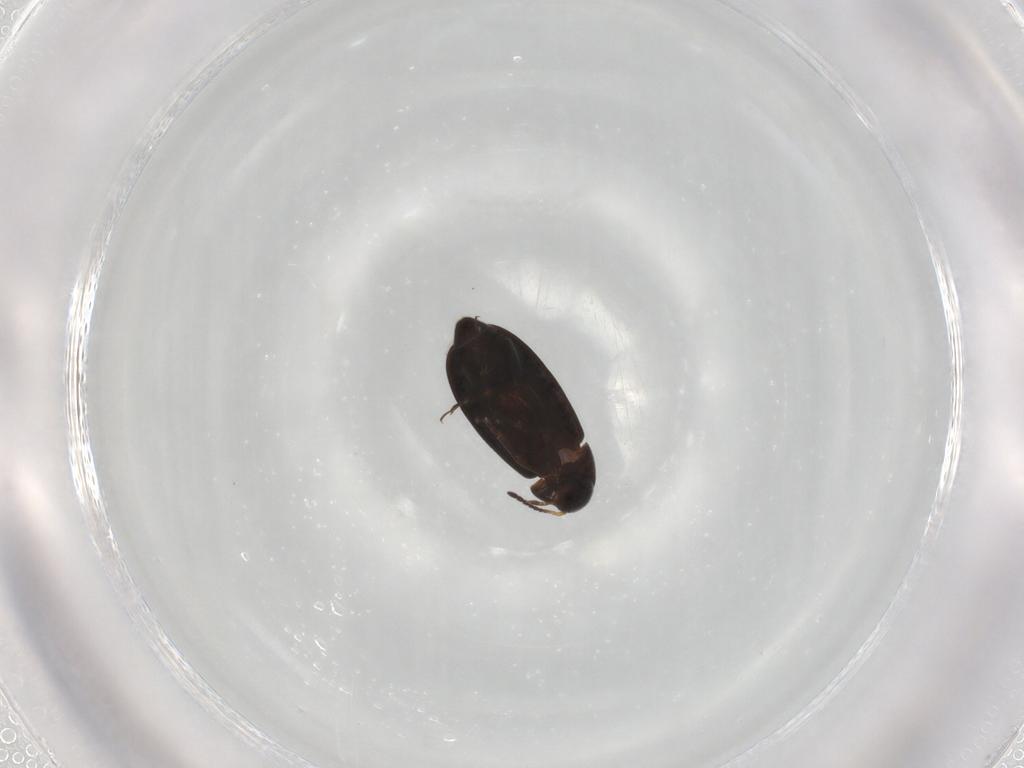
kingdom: Animalia
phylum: Arthropoda
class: Insecta
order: Coleoptera
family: Scraptiidae
